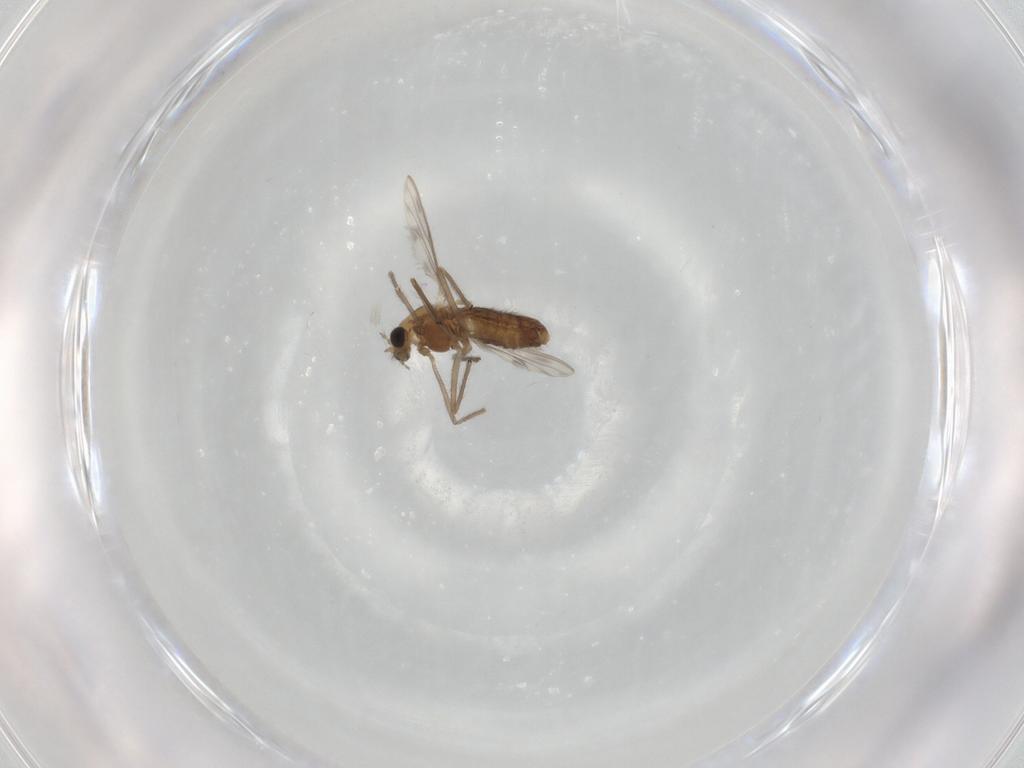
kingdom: Animalia
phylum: Arthropoda
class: Insecta
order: Diptera
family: Chironomidae
